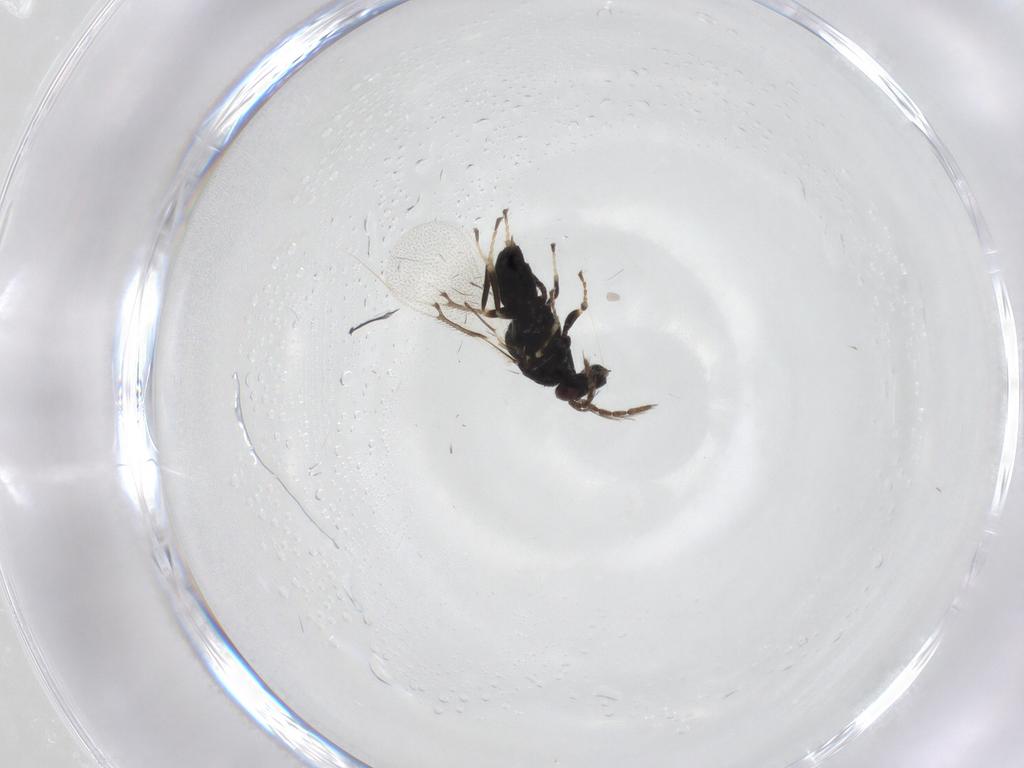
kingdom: Animalia
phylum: Arthropoda
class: Insecta
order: Hymenoptera
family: Eulophidae
